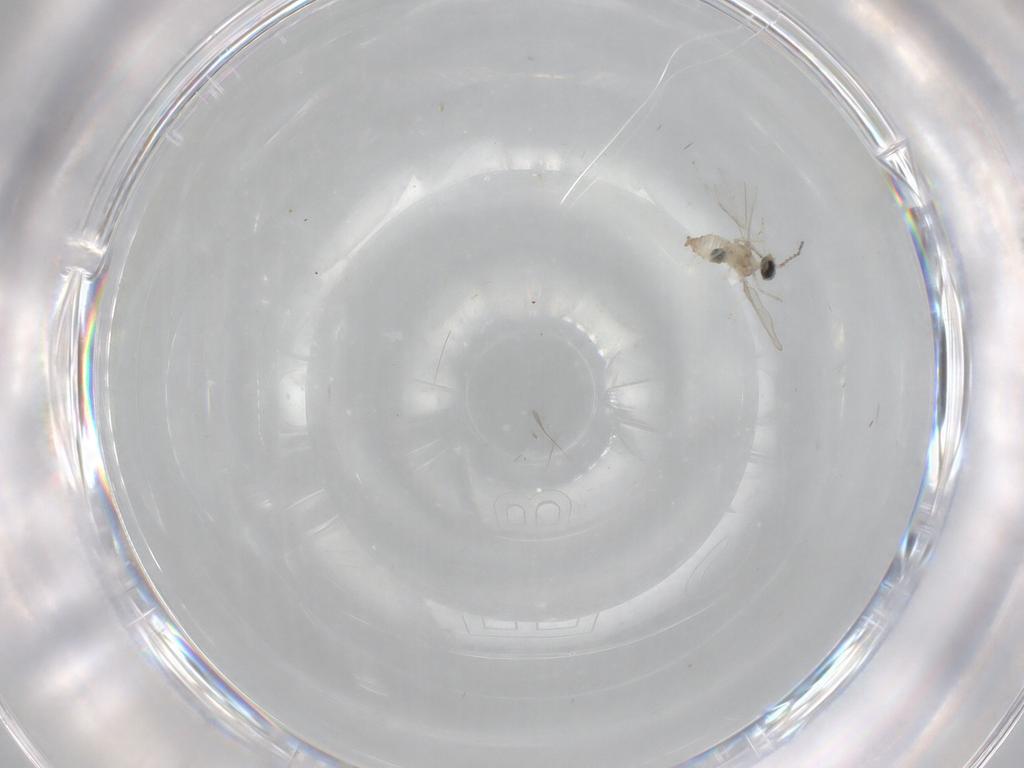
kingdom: Animalia
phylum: Arthropoda
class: Insecta
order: Diptera
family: Cecidomyiidae
